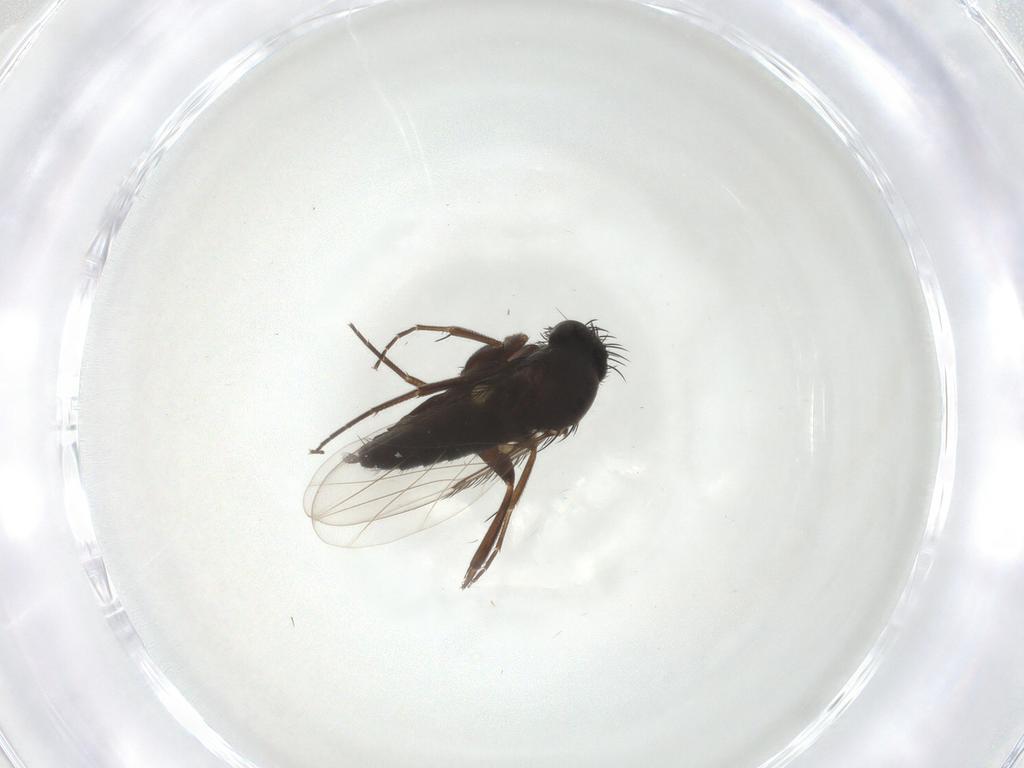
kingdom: Animalia
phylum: Arthropoda
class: Insecta
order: Diptera
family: Phoridae
